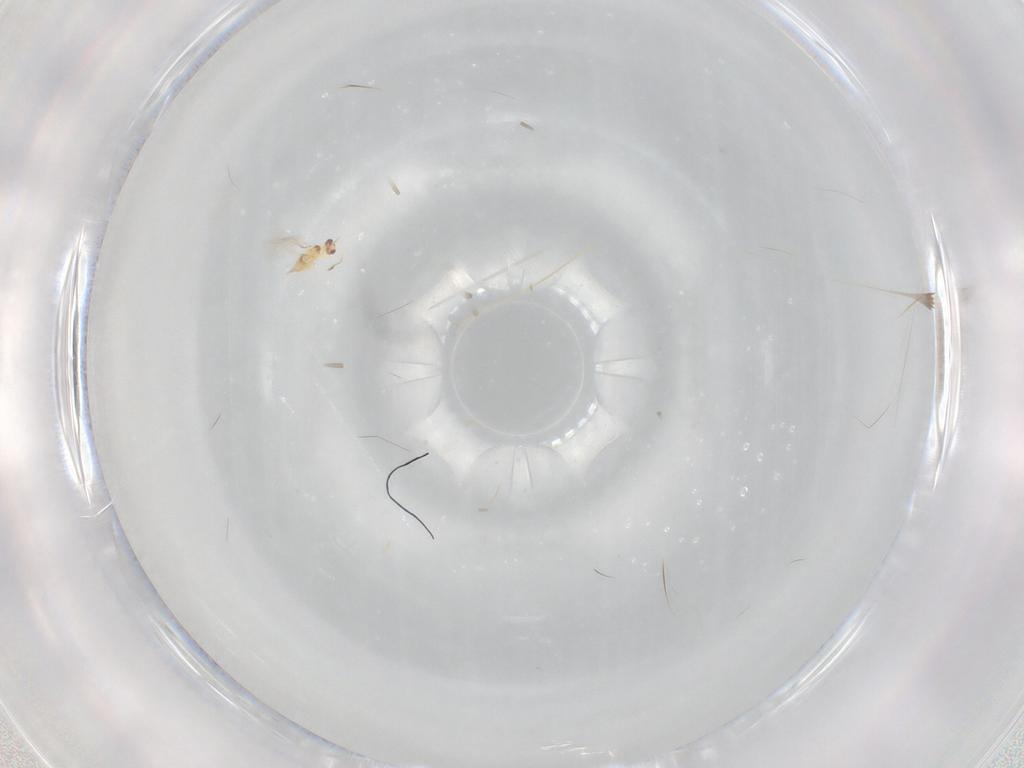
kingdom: Animalia
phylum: Arthropoda
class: Insecta
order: Hymenoptera
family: Mymaridae
